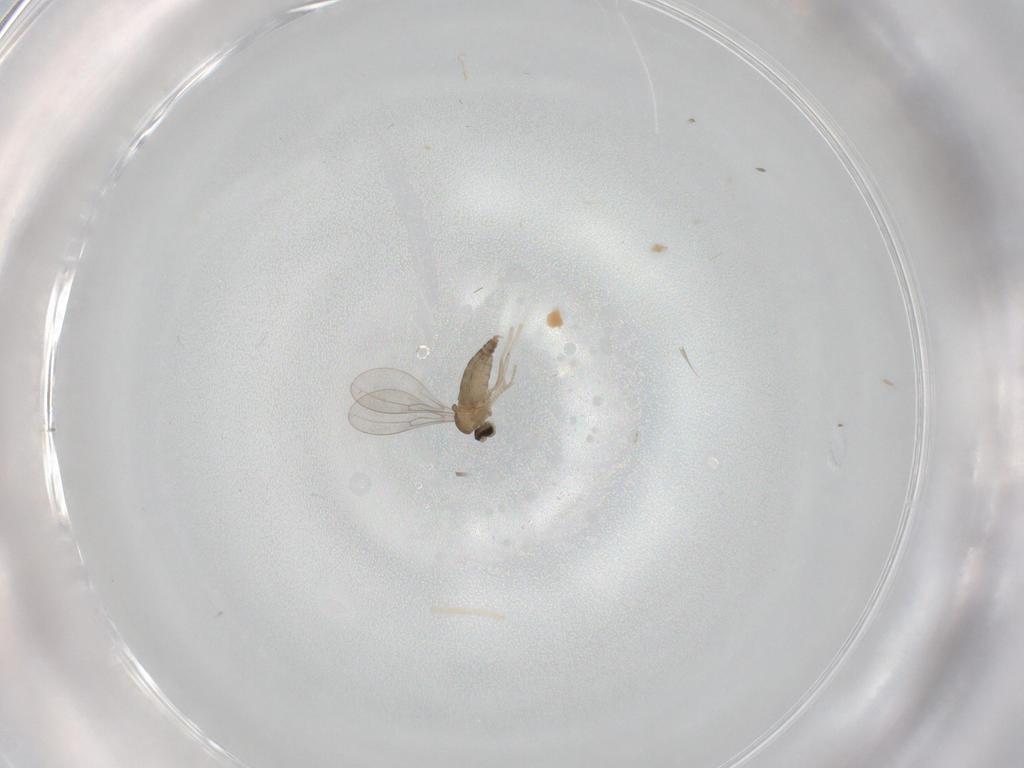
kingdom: Animalia
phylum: Arthropoda
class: Insecta
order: Diptera
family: Cecidomyiidae
